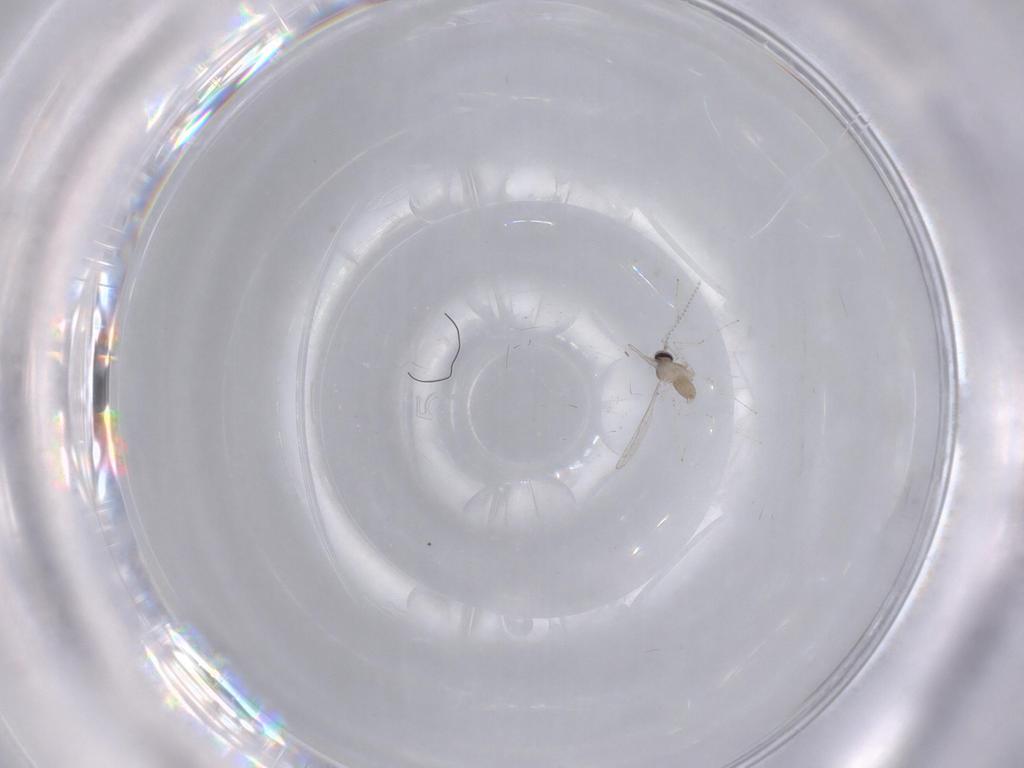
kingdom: Animalia
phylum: Arthropoda
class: Insecta
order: Diptera
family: Cecidomyiidae
